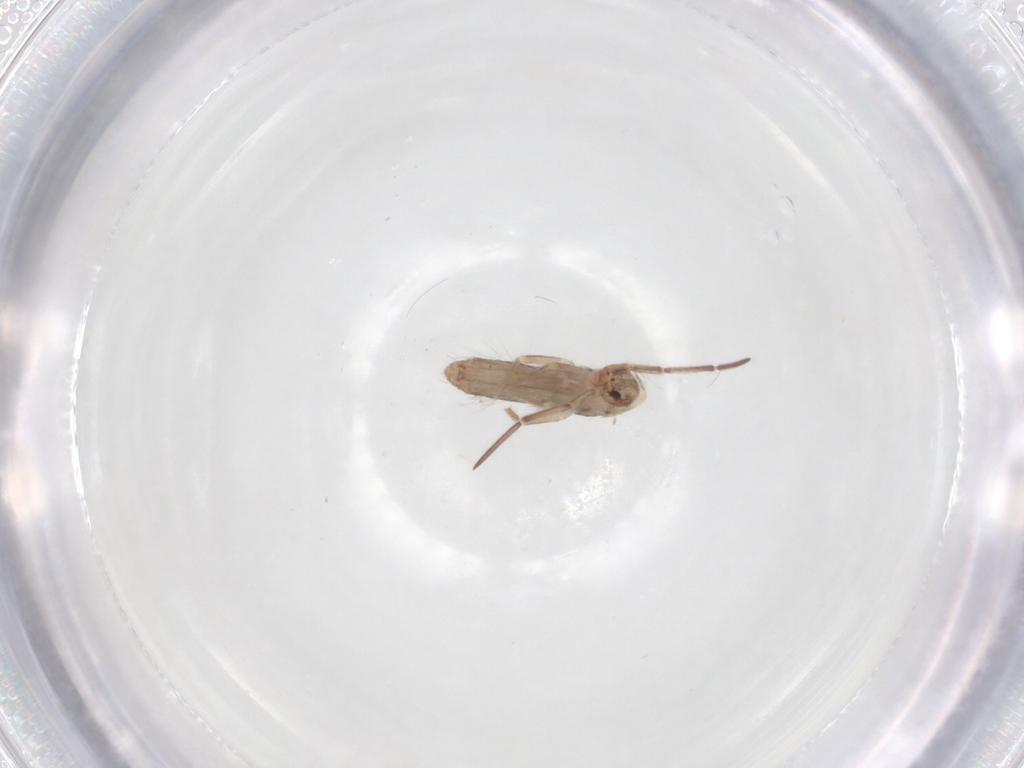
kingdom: Animalia
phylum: Arthropoda
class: Collembola
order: Entomobryomorpha
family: Entomobryidae
